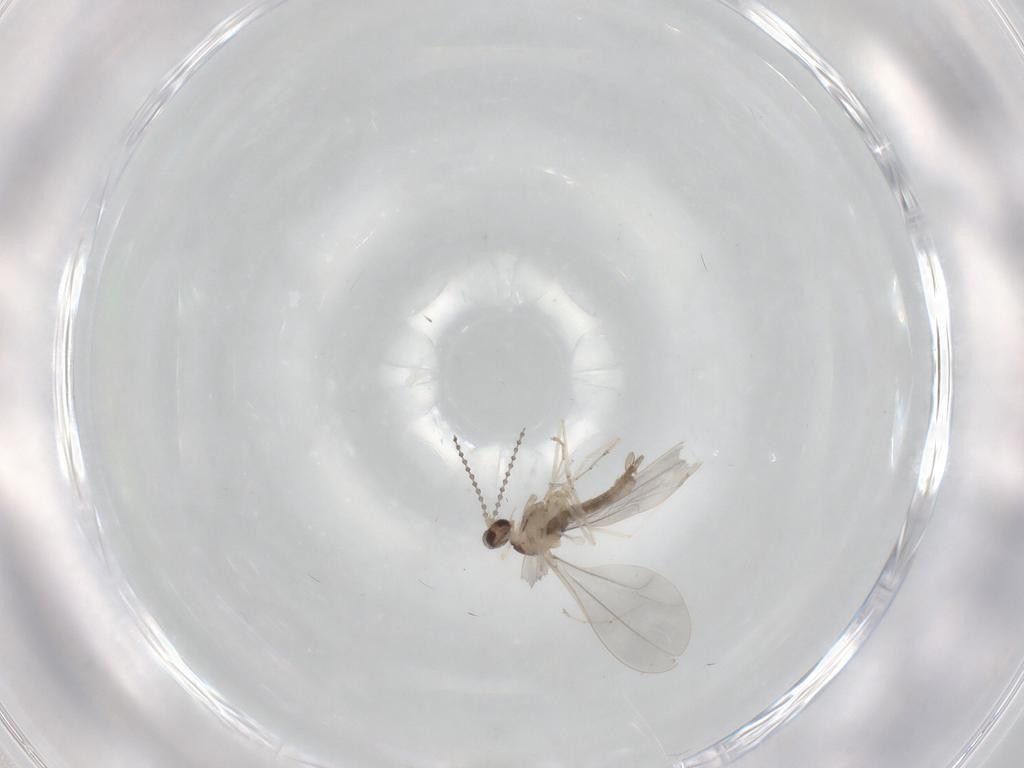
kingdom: Animalia
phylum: Arthropoda
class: Insecta
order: Diptera
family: Cecidomyiidae
